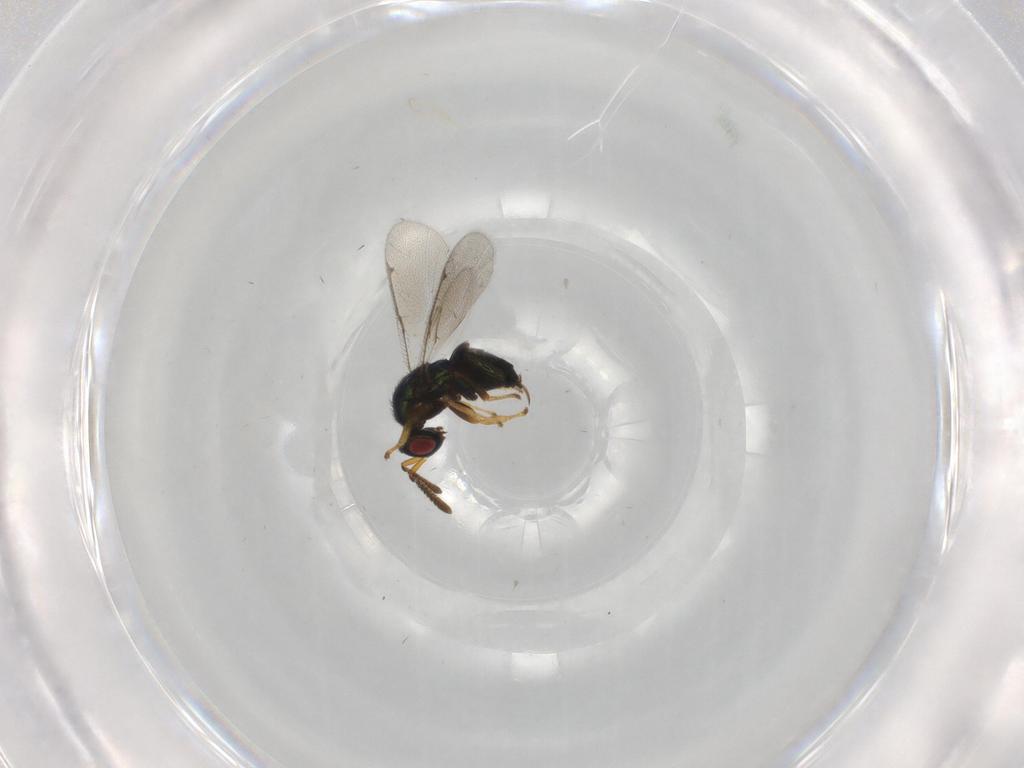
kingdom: Animalia
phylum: Arthropoda
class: Insecta
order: Hymenoptera
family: Torymidae
